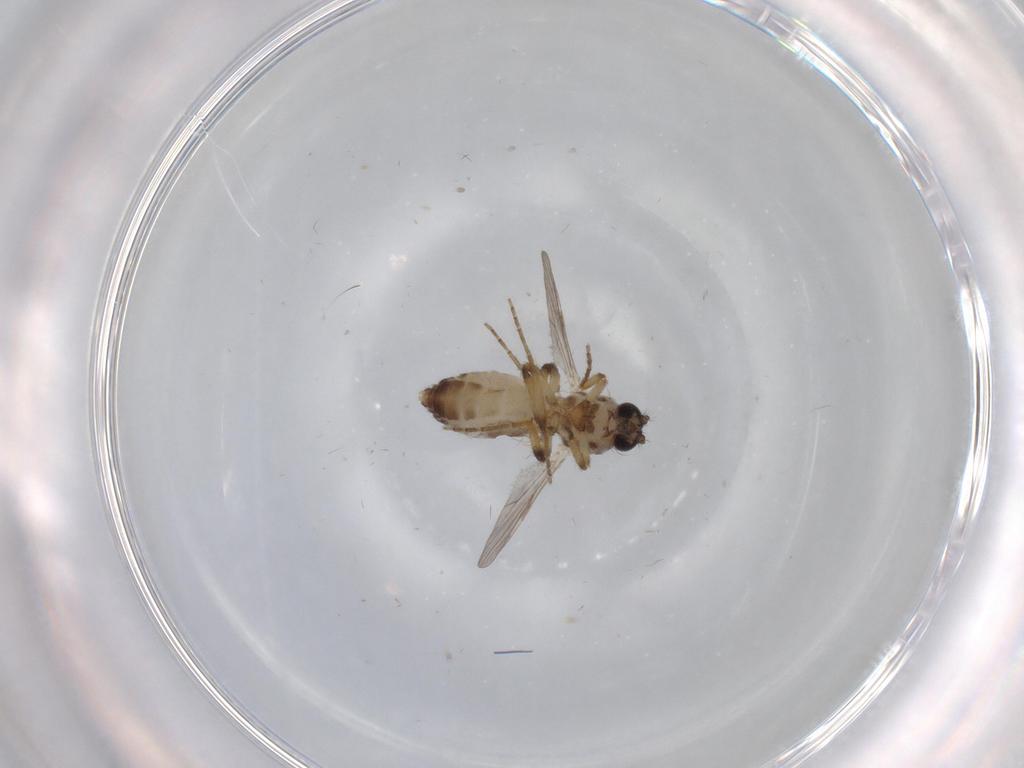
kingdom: Animalia
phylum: Arthropoda
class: Insecta
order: Diptera
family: Ceratopogonidae
